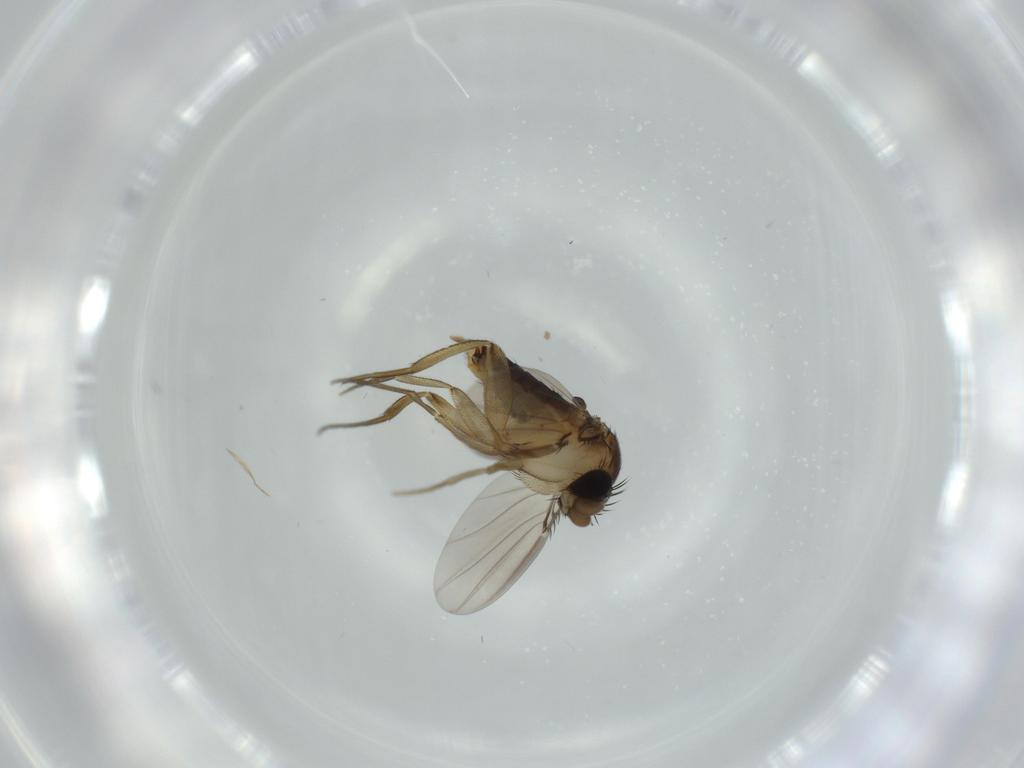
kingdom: Animalia
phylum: Arthropoda
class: Insecta
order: Diptera
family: Phoridae
